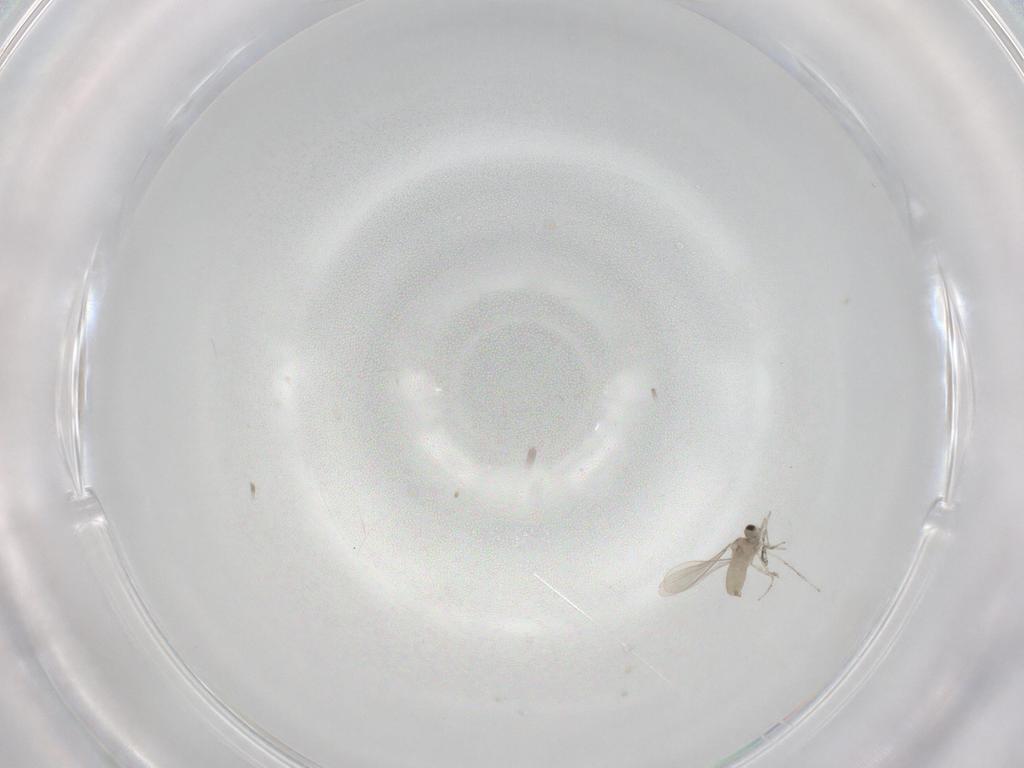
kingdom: Animalia
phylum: Arthropoda
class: Insecta
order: Diptera
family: Cecidomyiidae
